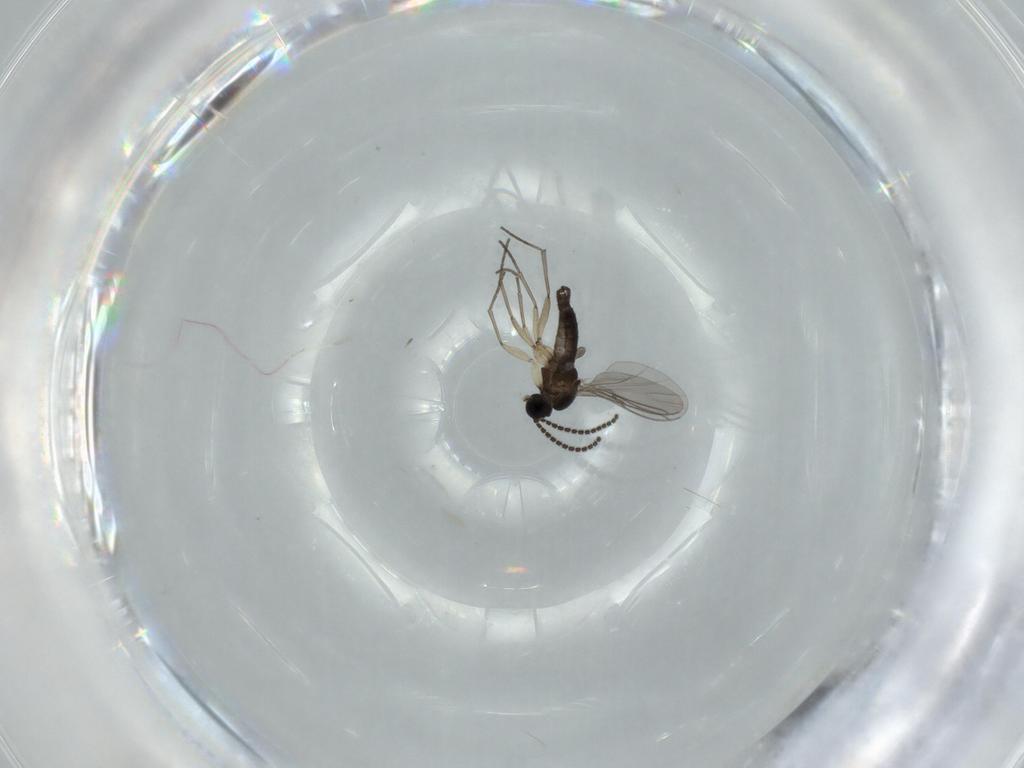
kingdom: Animalia
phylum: Arthropoda
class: Insecta
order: Diptera
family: Sciaridae
